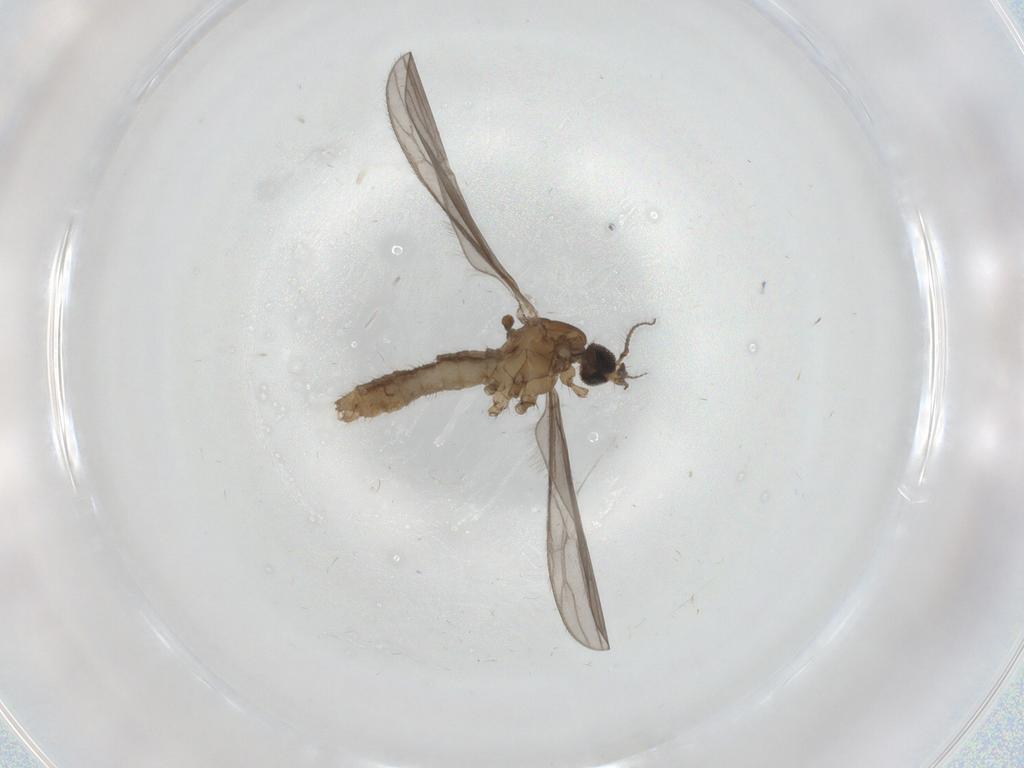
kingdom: Animalia
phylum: Arthropoda
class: Insecta
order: Diptera
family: Limoniidae
